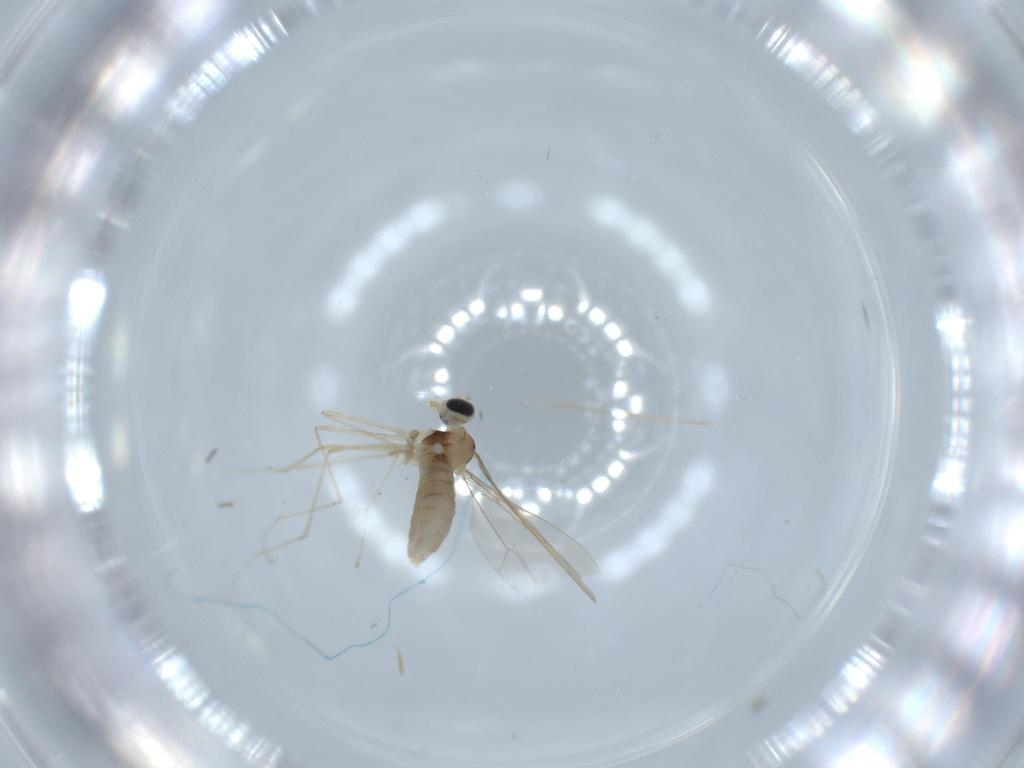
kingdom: Animalia
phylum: Arthropoda
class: Insecta
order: Diptera
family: Cecidomyiidae
